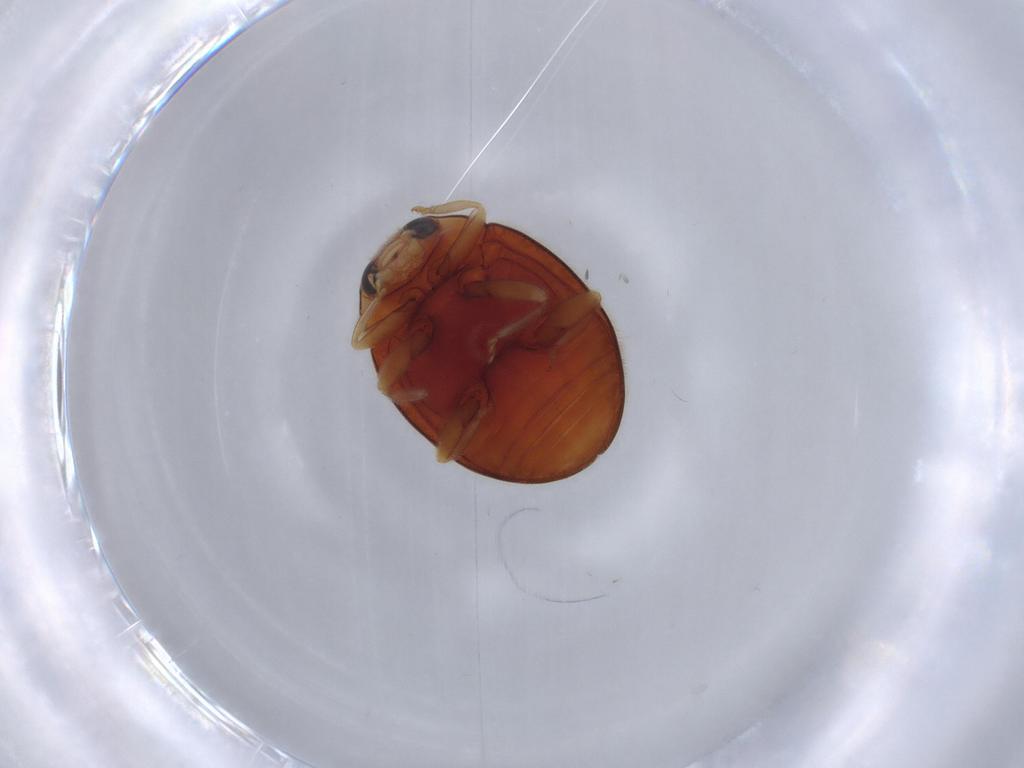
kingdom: Animalia
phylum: Arthropoda
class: Insecta
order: Coleoptera
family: Coccinellidae
